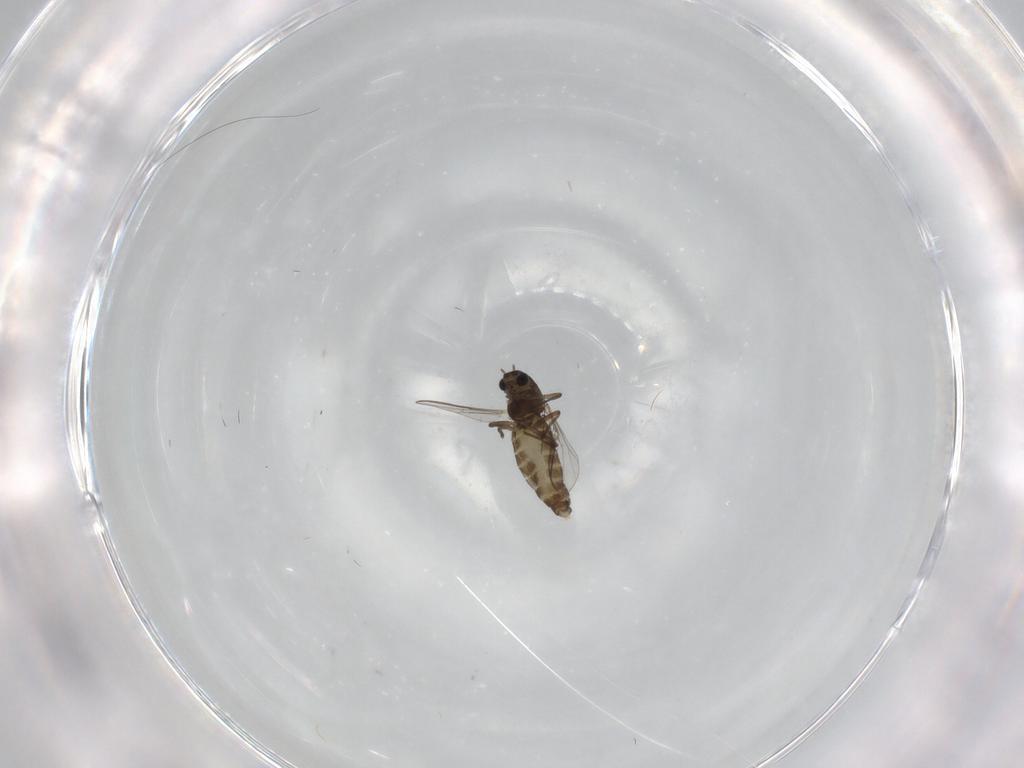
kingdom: Animalia
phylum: Arthropoda
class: Insecta
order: Diptera
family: Chironomidae
